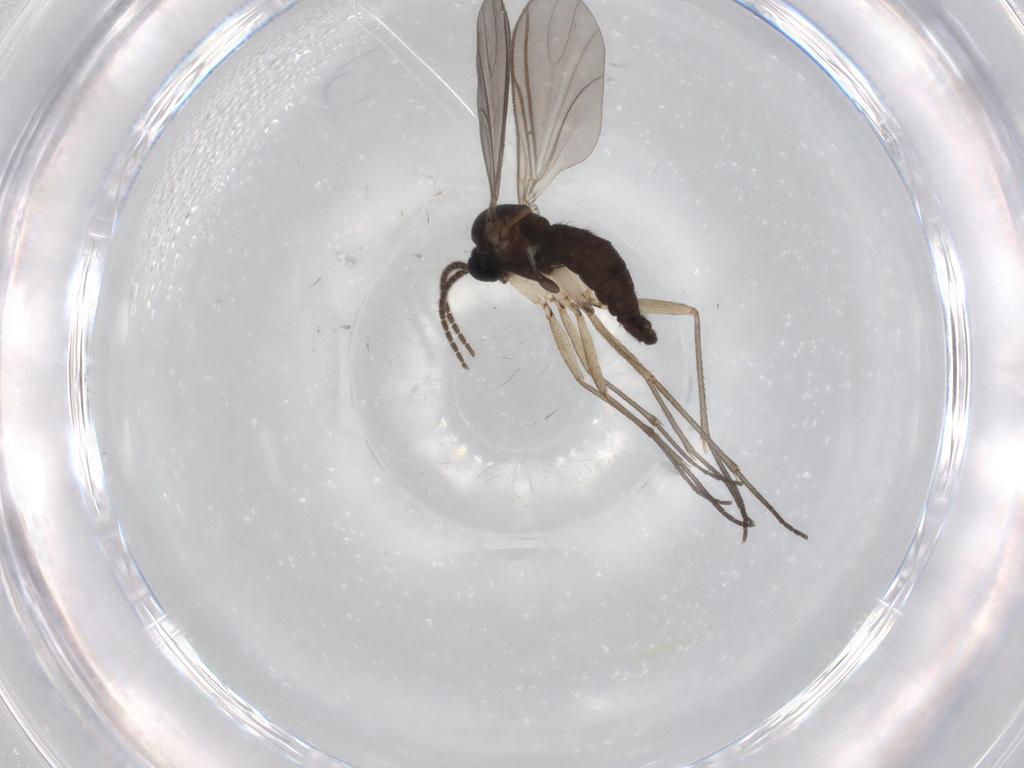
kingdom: Animalia
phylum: Arthropoda
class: Insecta
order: Diptera
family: Sciaridae
